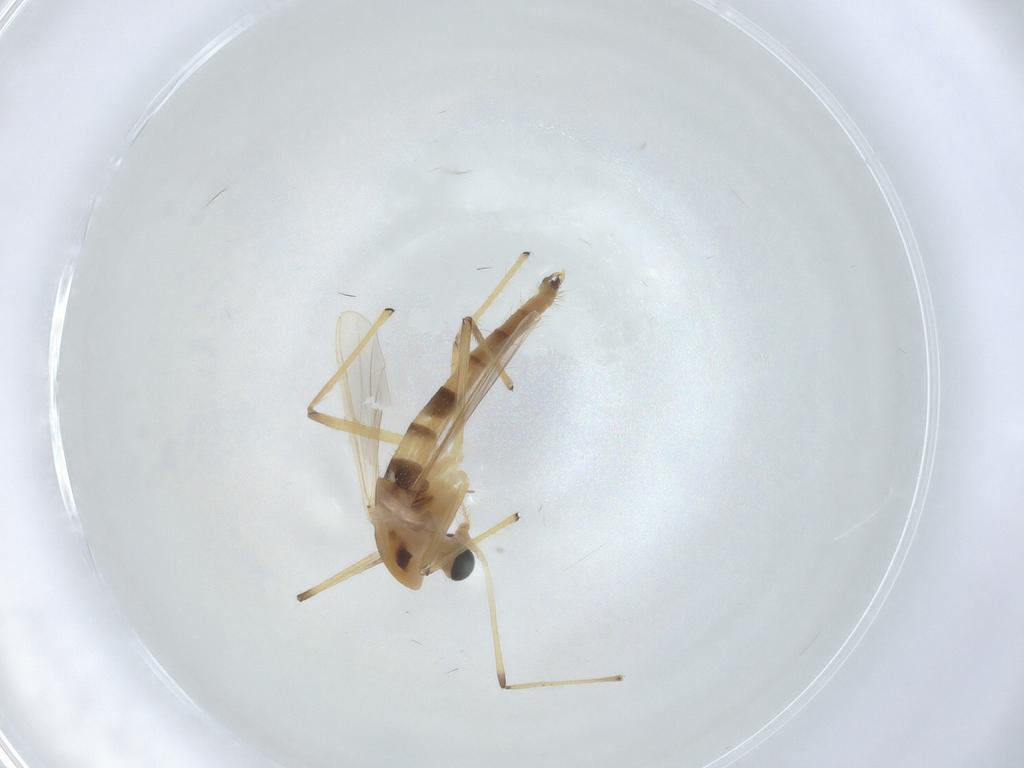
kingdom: Animalia
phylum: Arthropoda
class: Insecta
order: Diptera
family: Chironomidae
